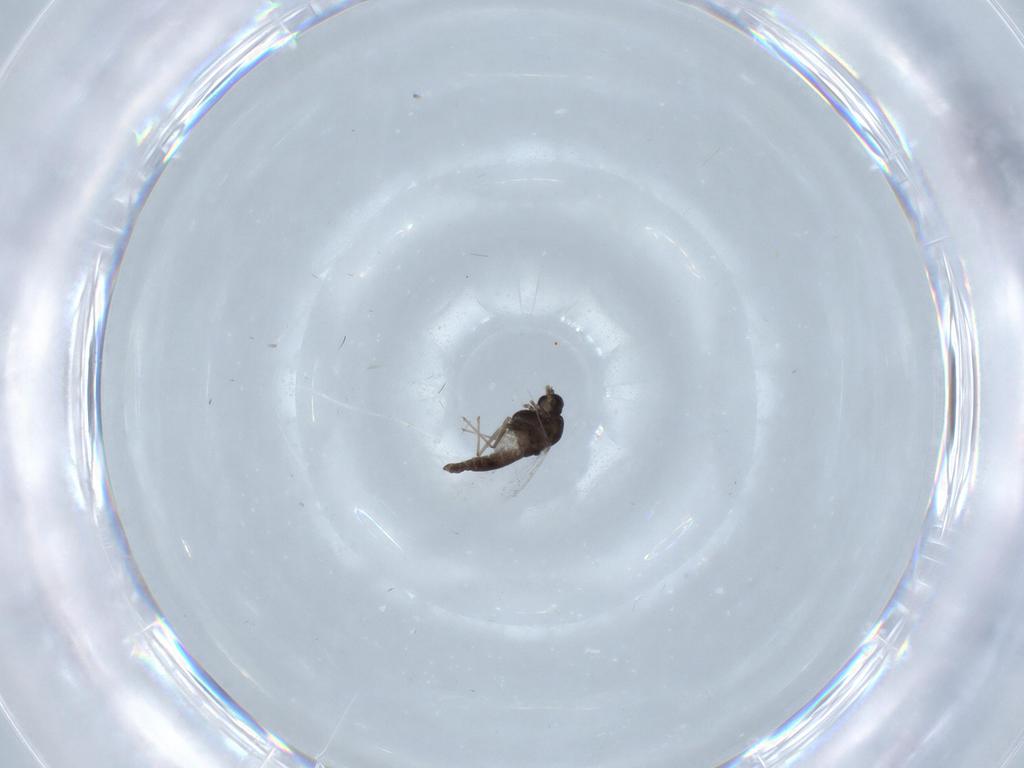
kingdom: Animalia
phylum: Arthropoda
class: Insecta
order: Diptera
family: Chironomidae
